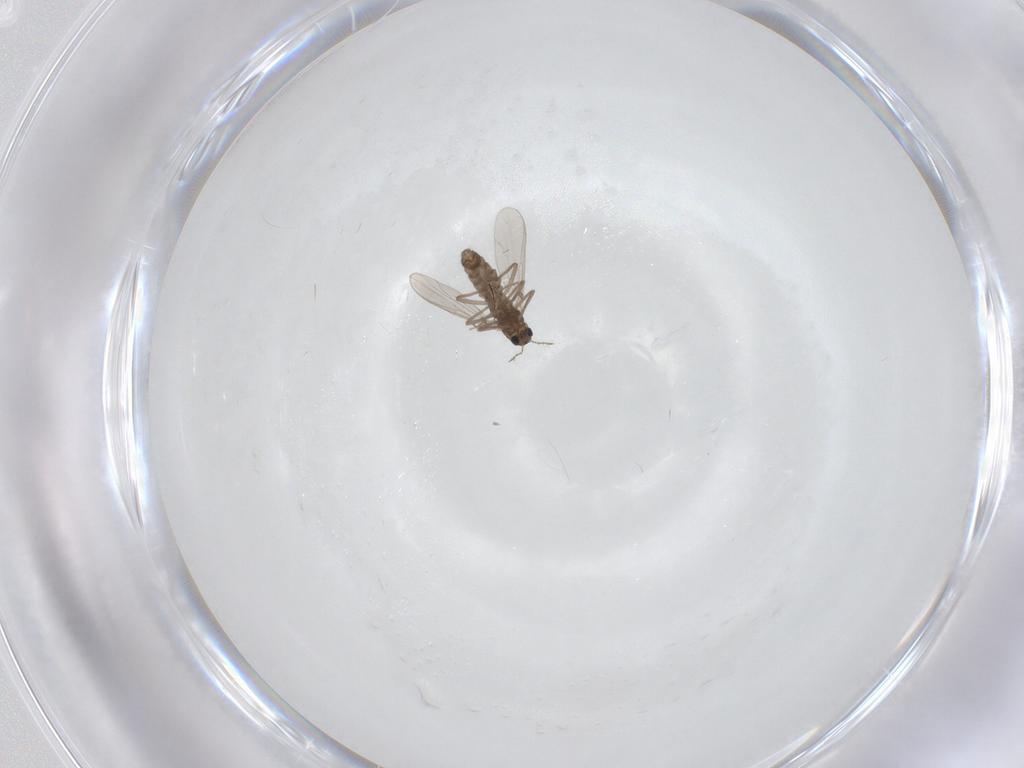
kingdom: Animalia
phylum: Arthropoda
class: Insecta
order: Diptera
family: Chironomidae
